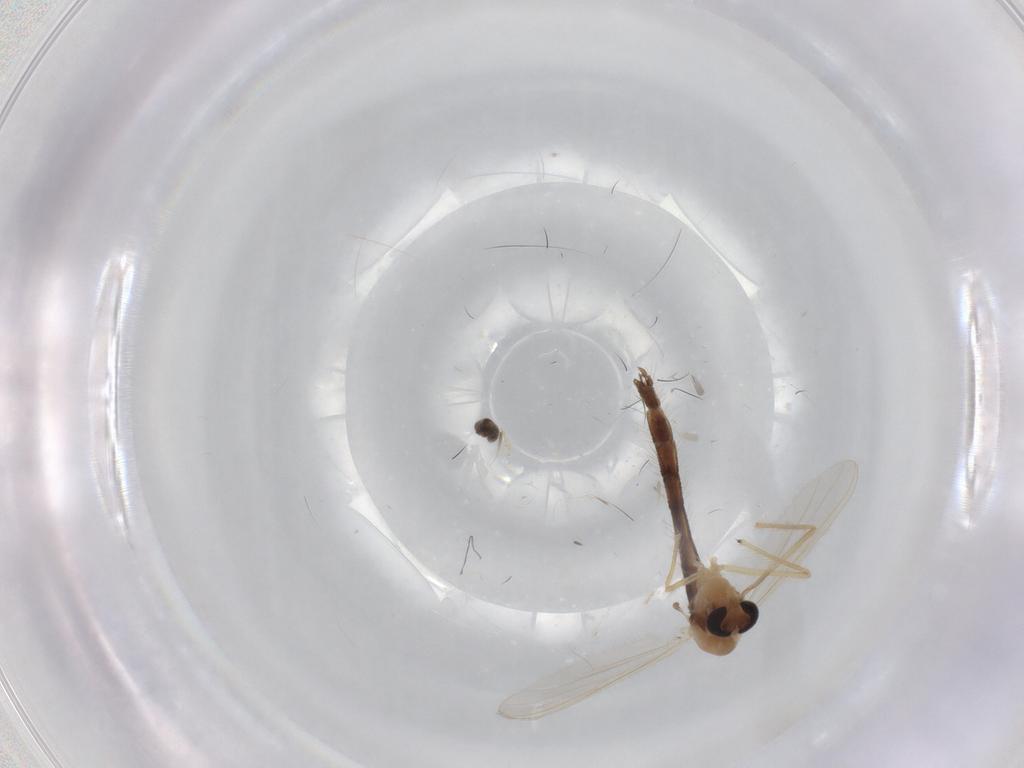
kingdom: Animalia
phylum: Arthropoda
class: Insecta
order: Diptera
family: Chironomidae
